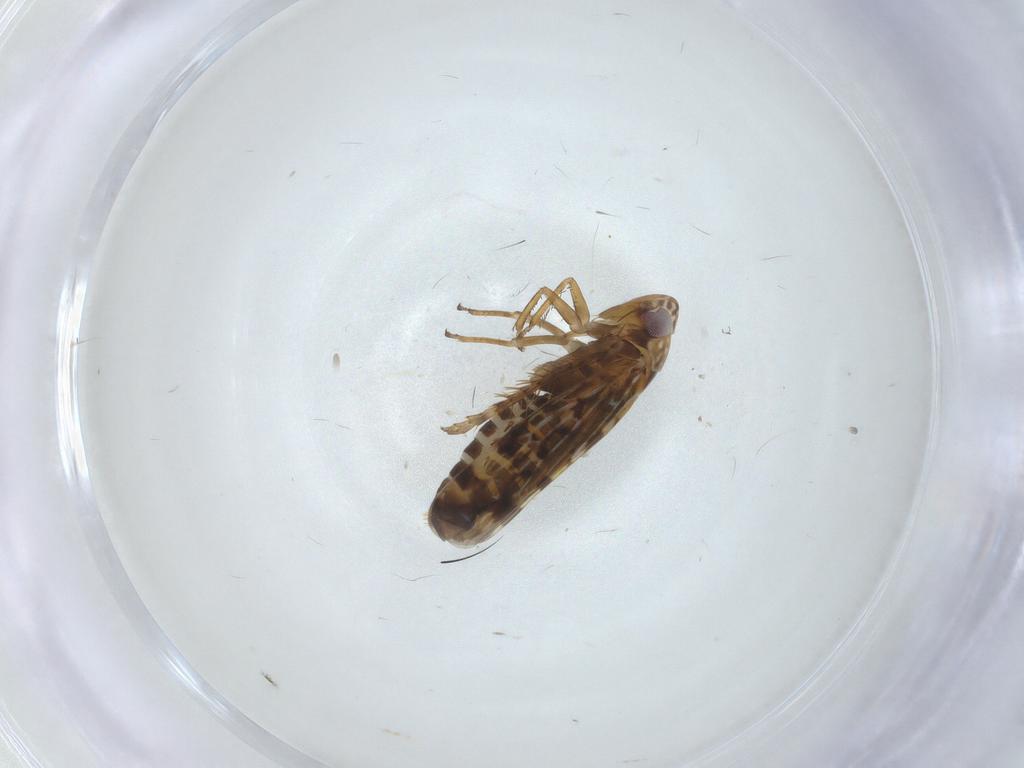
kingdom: Animalia
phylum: Arthropoda
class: Insecta
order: Hemiptera
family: Cicadellidae
